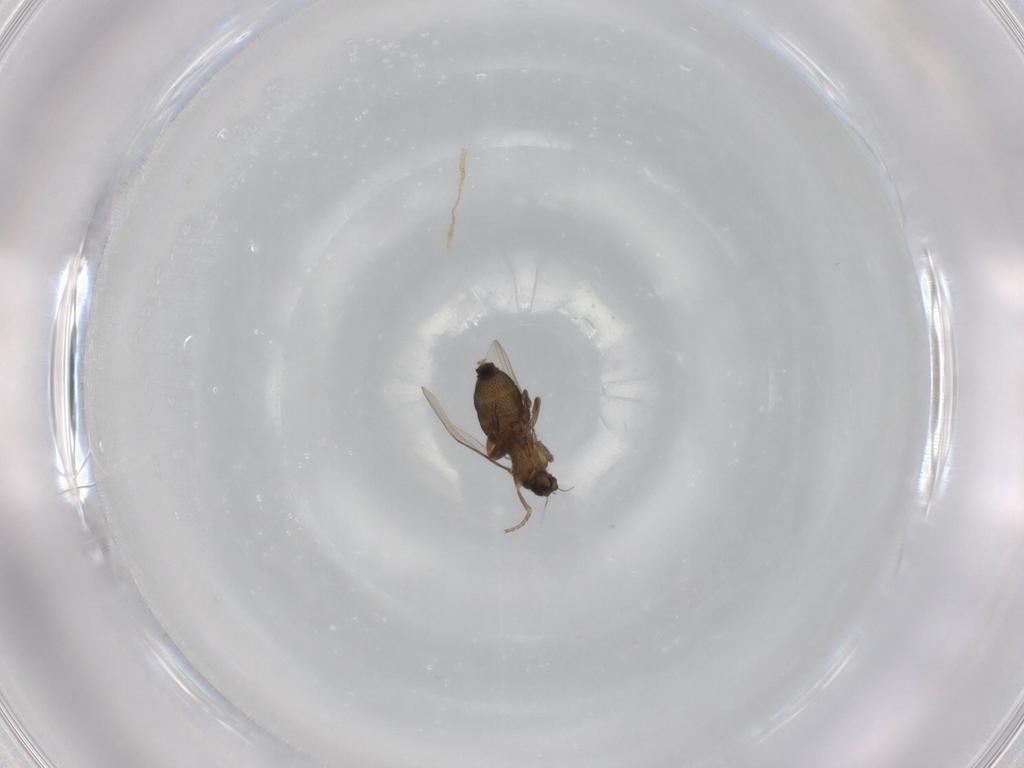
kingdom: Animalia
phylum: Arthropoda
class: Insecta
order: Diptera
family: Phoridae
